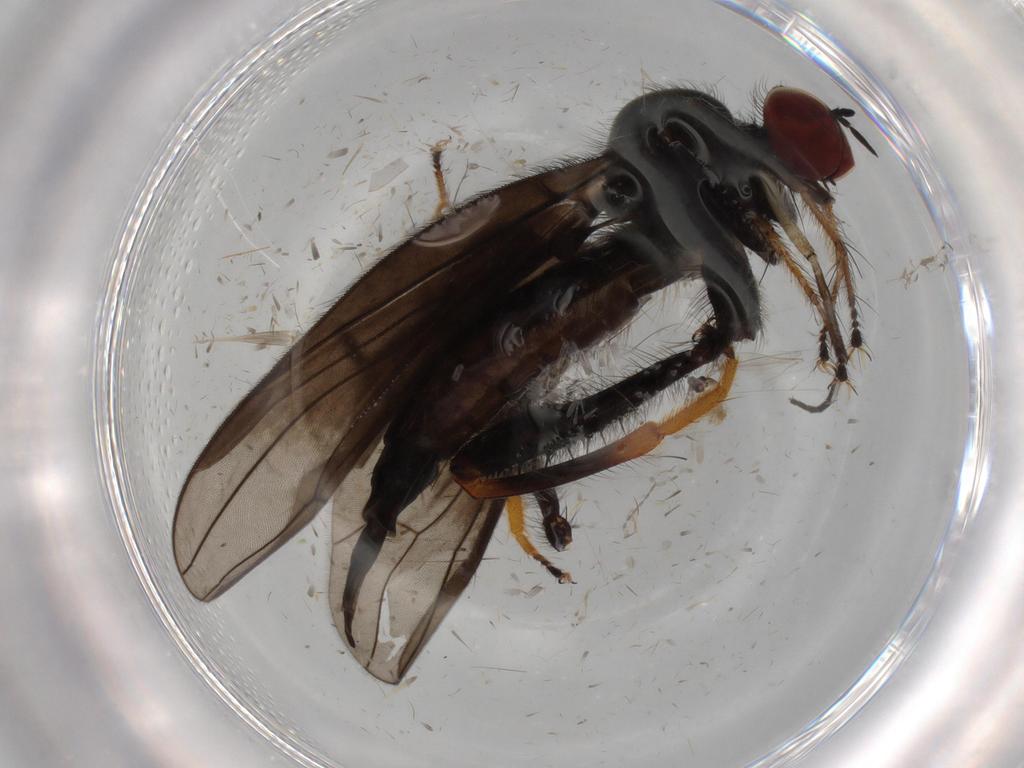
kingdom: Animalia
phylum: Arthropoda
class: Insecta
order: Diptera
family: Hybotidae
